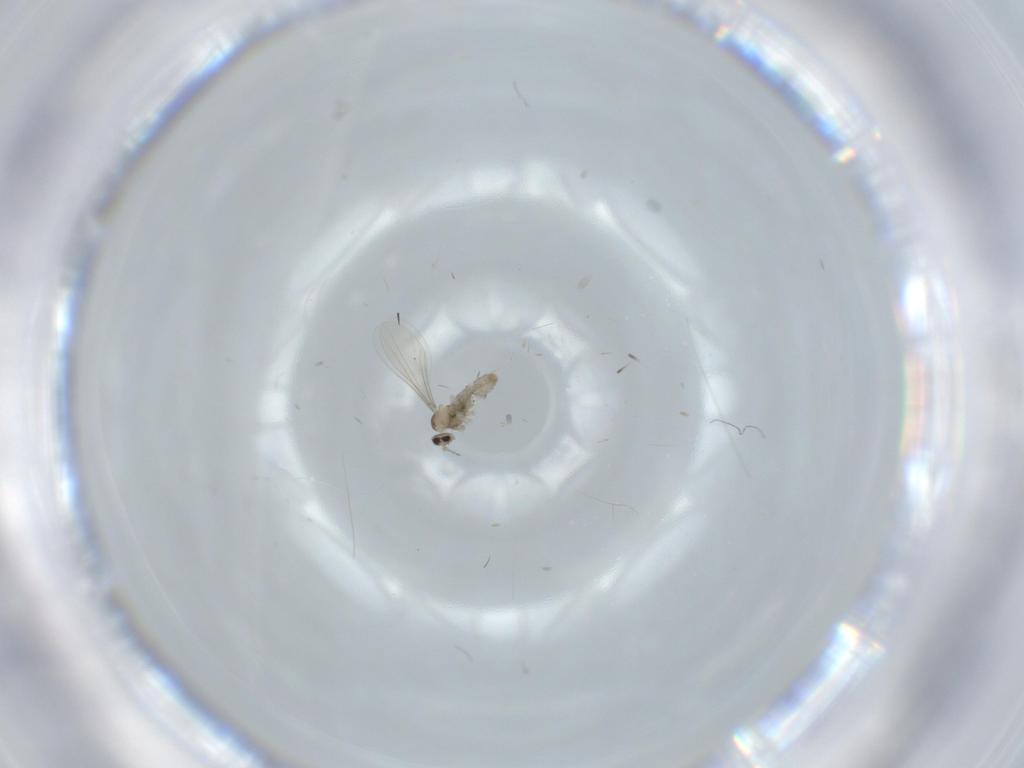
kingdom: Animalia
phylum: Arthropoda
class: Insecta
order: Diptera
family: Cecidomyiidae
